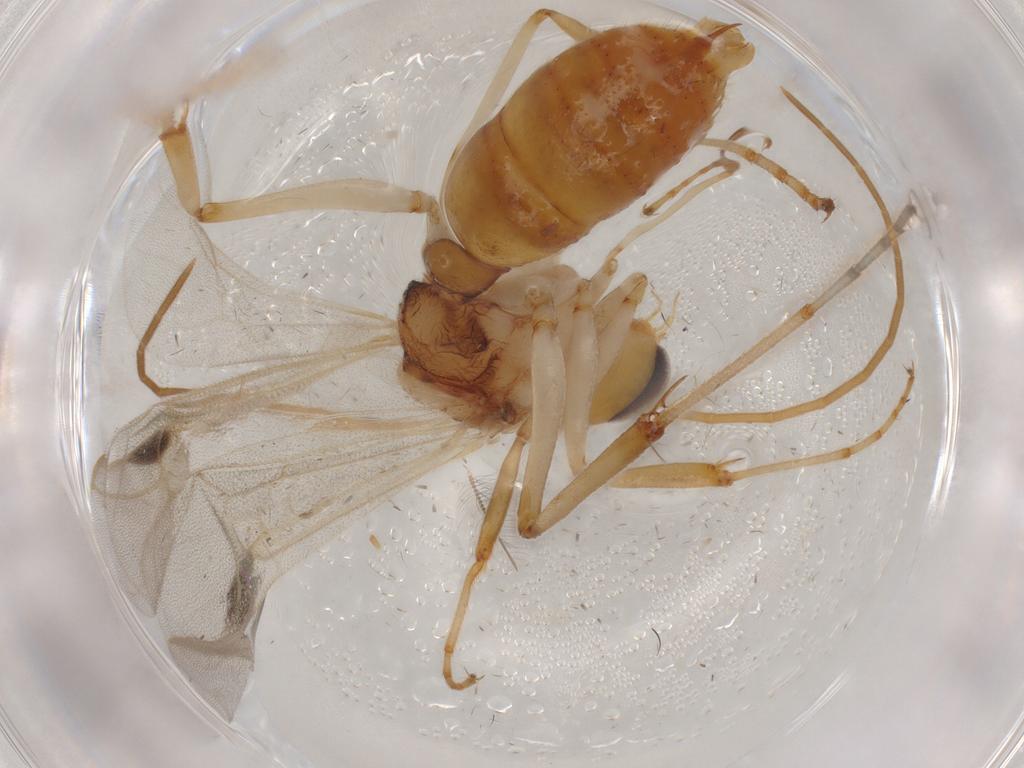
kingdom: Animalia
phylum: Arthropoda
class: Insecta
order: Hymenoptera
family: Formicidae
